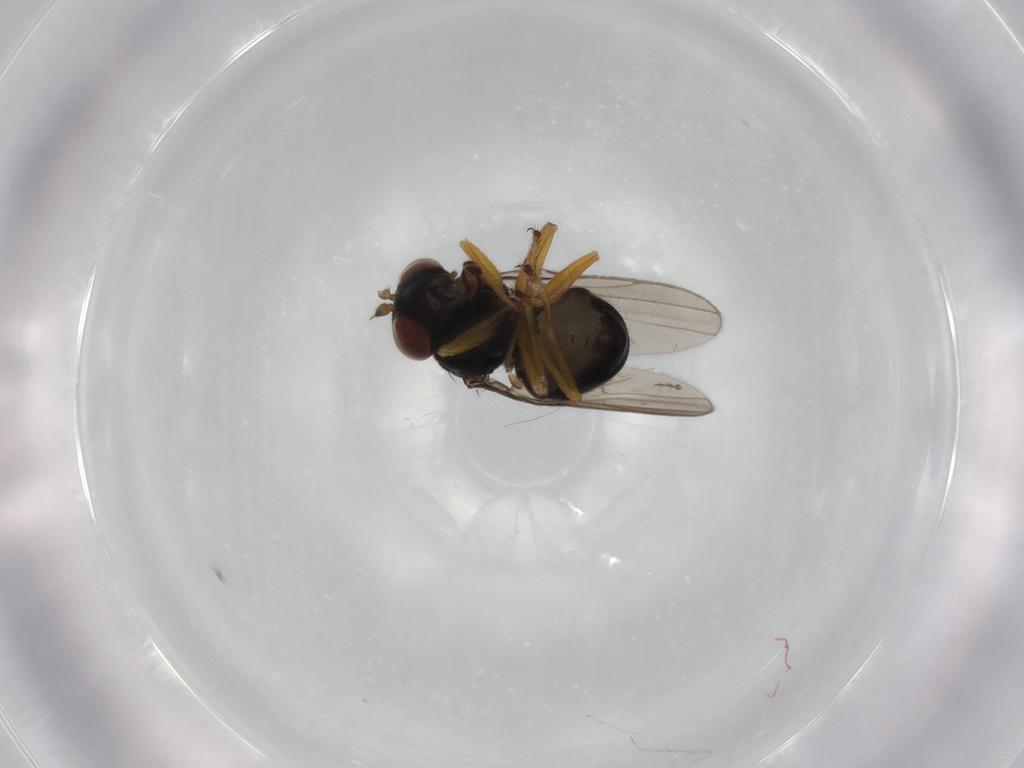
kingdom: Animalia
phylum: Arthropoda
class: Insecta
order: Diptera
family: Ephydridae
